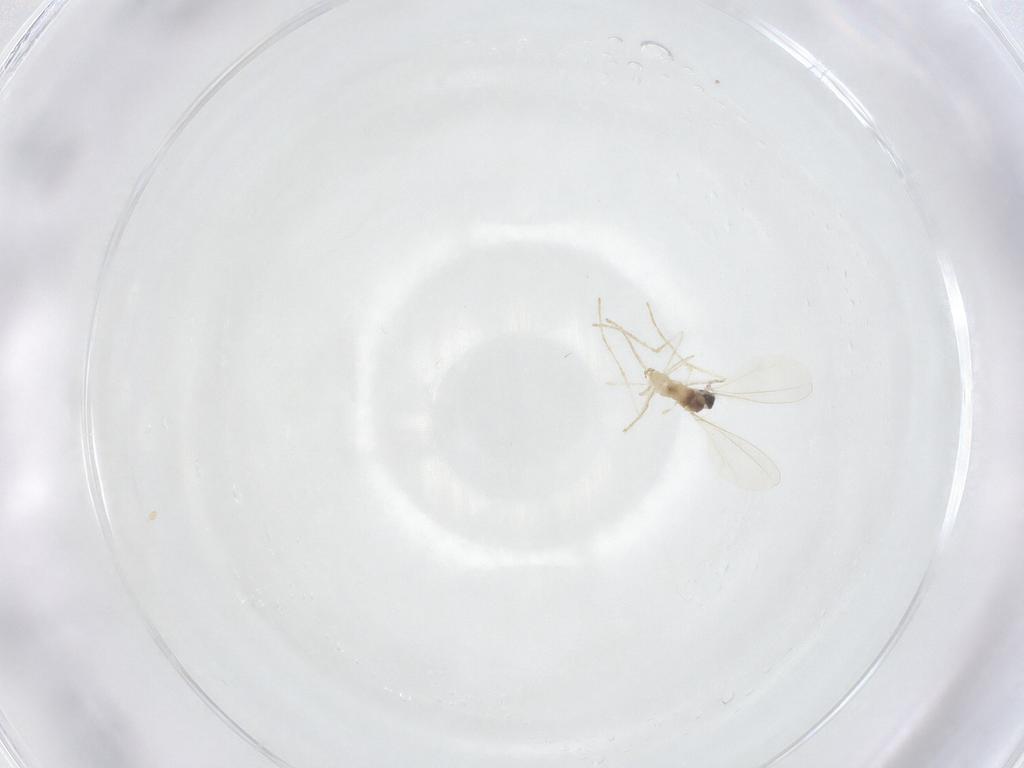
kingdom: Animalia
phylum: Arthropoda
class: Insecta
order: Diptera
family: Cecidomyiidae
